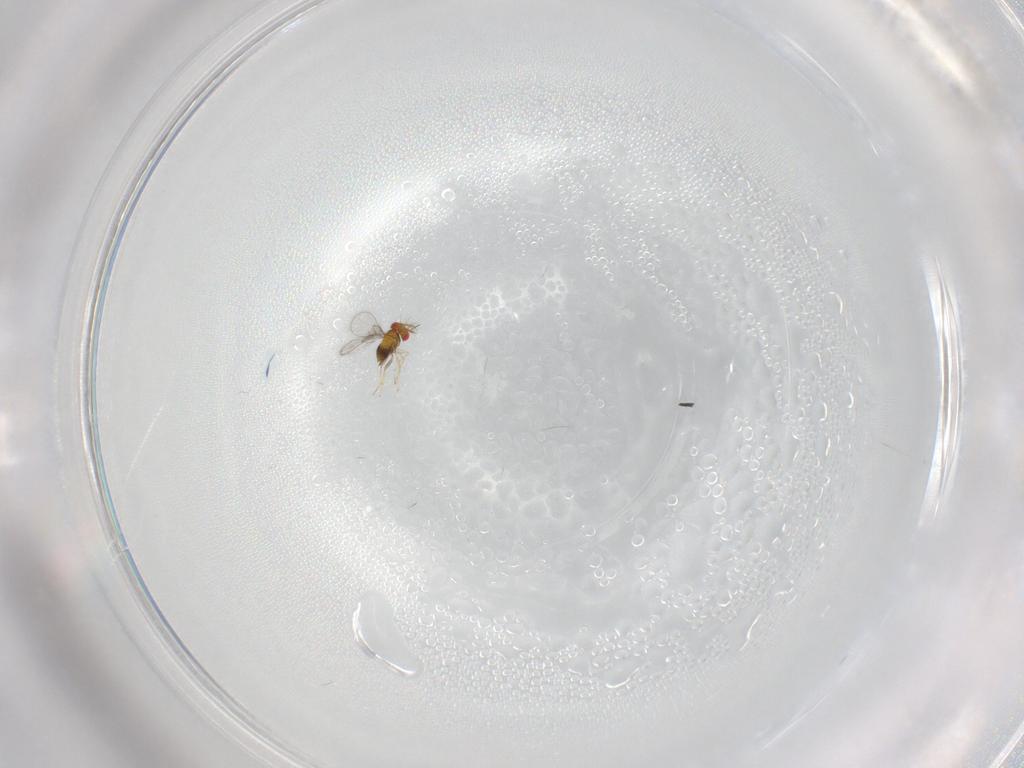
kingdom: Animalia
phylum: Arthropoda
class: Insecta
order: Hymenoptera
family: Trichogrammatidae
